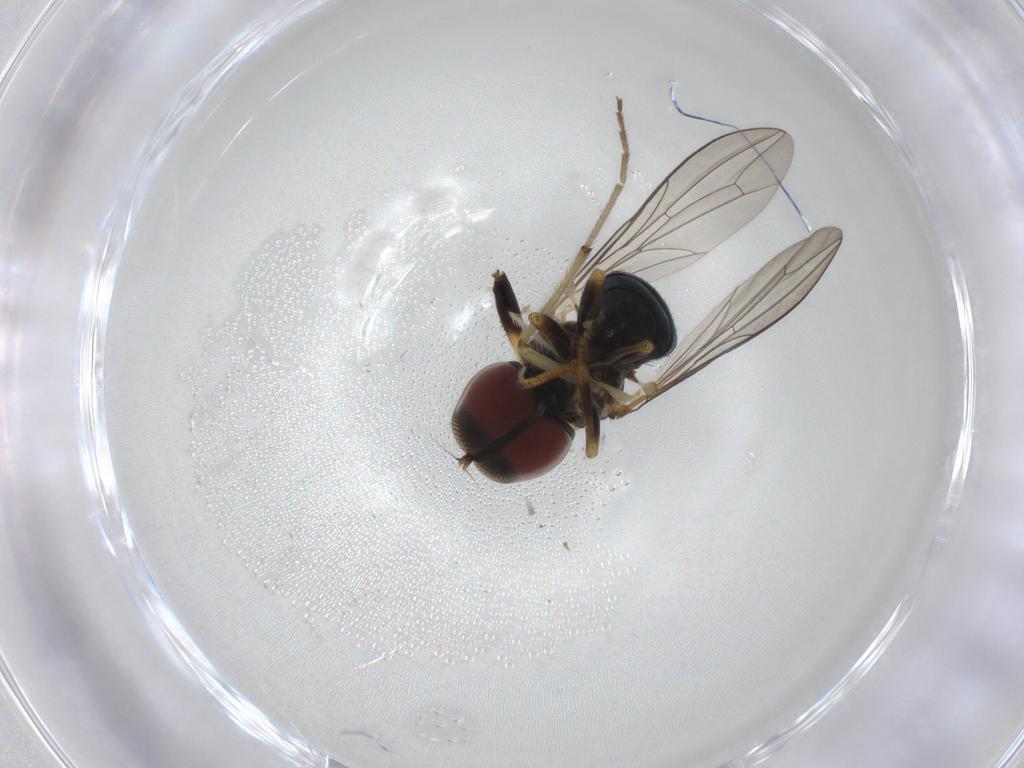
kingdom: Animalia
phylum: Arthropoda
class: Insecta
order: Diptera
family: Pipunculidae
